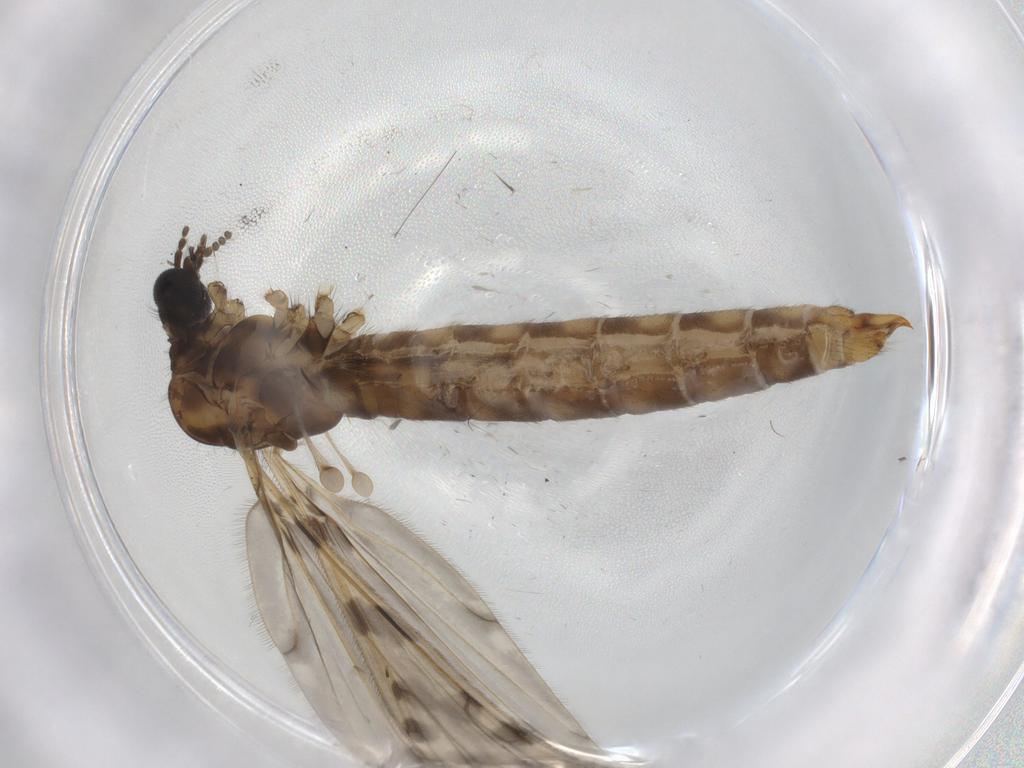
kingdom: Animalia
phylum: Arthropoda
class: Insecta
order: Diptera
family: Limoniidae
